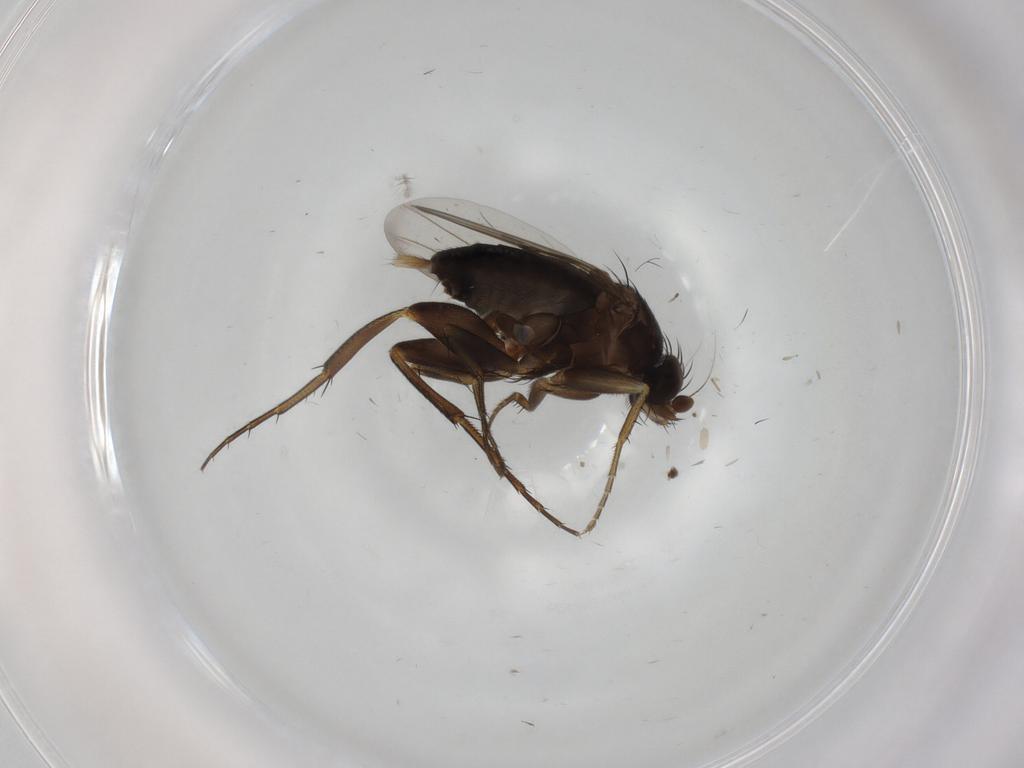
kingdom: Animalia
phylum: Arthropoda
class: Insecta
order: Diptera
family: Phoridae
